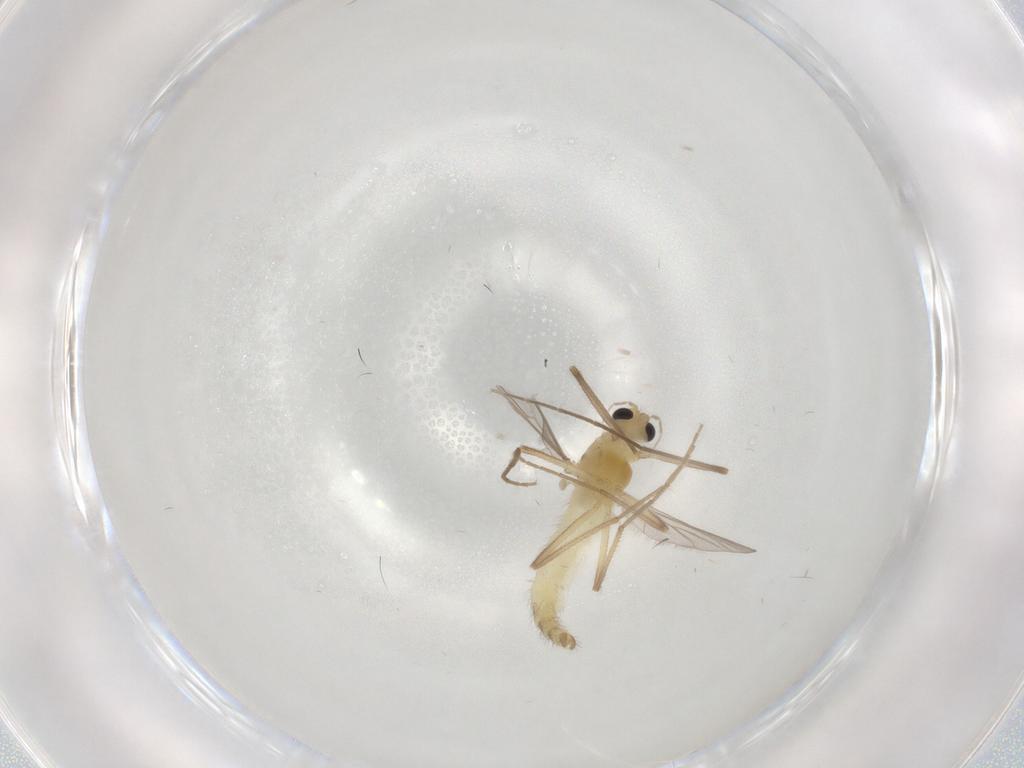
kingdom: Animalia
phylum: Arthropoda
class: Insecta
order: Diptera
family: Chironomidae
